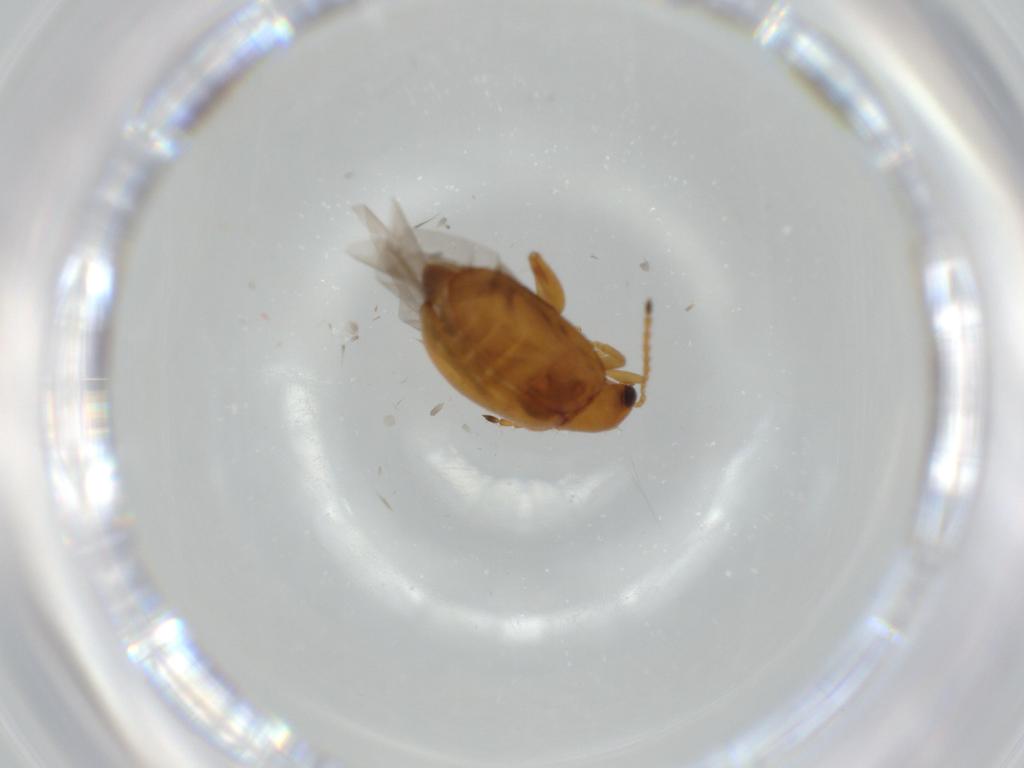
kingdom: Animalia
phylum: Arthropoda
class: Insecta
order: Coleoptera
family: Chrysomelidae
